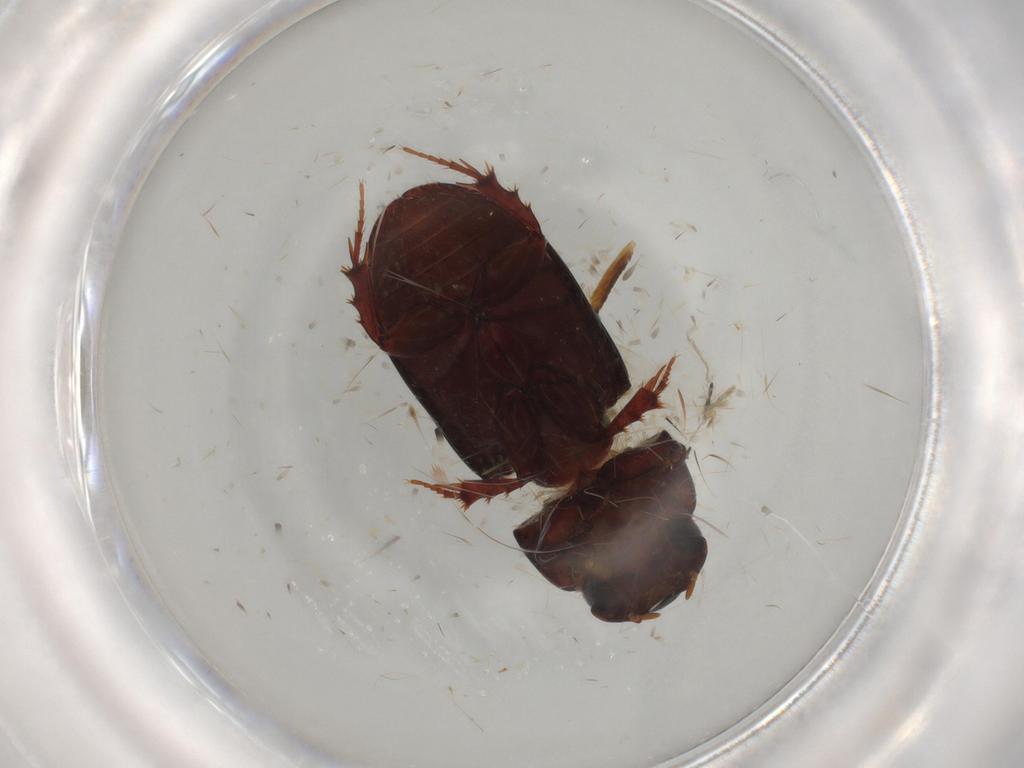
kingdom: Animalia
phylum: Arthropoda
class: Insecta
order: Coleoptera
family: Scarabaeidae
